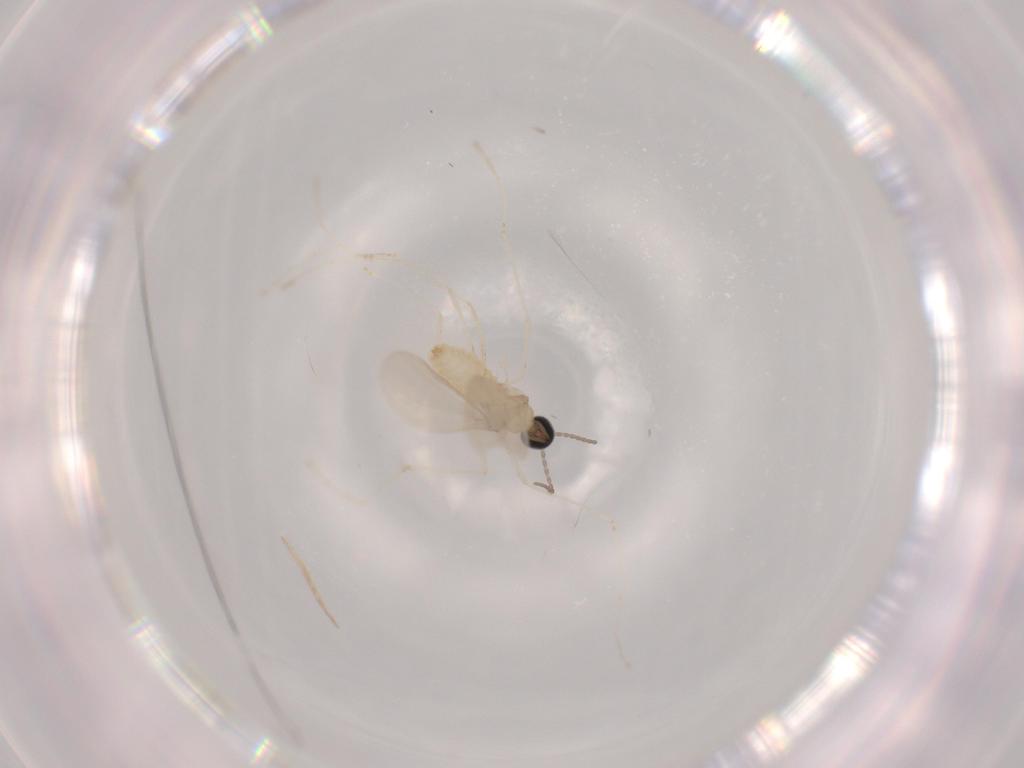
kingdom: Animalia
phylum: Arthropoda
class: Insecta
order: Diptera
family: Cecidomyiidae
